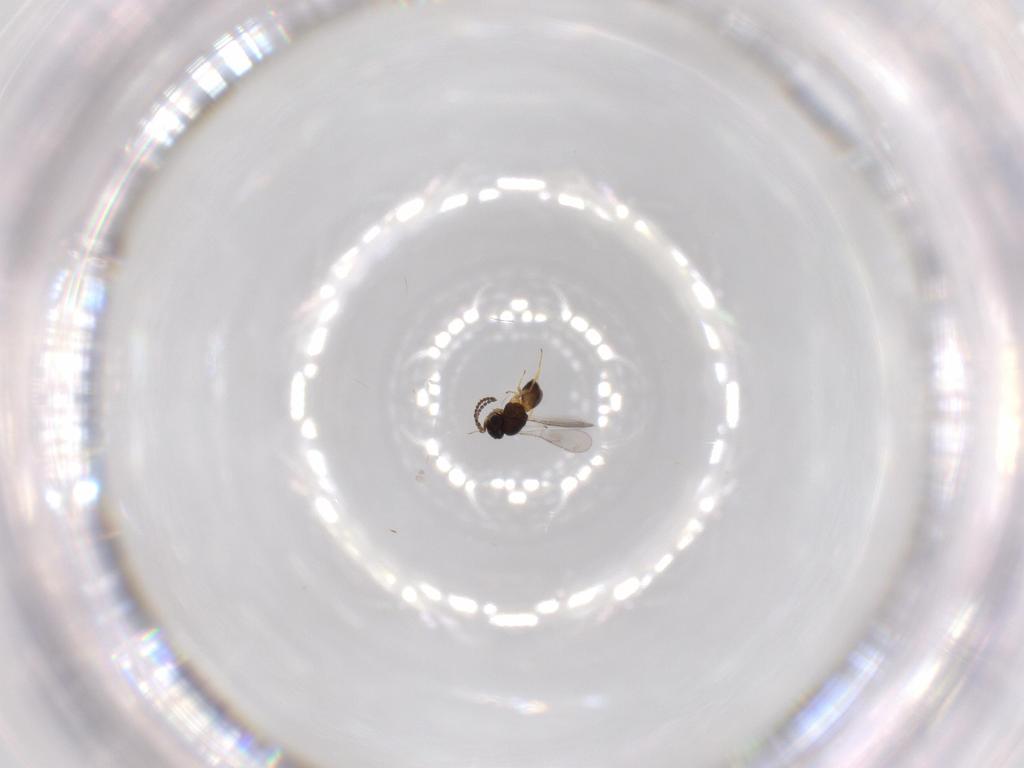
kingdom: Animalia
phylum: Arthropoda
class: Insecta
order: Hymenoptera
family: Scelionidae
